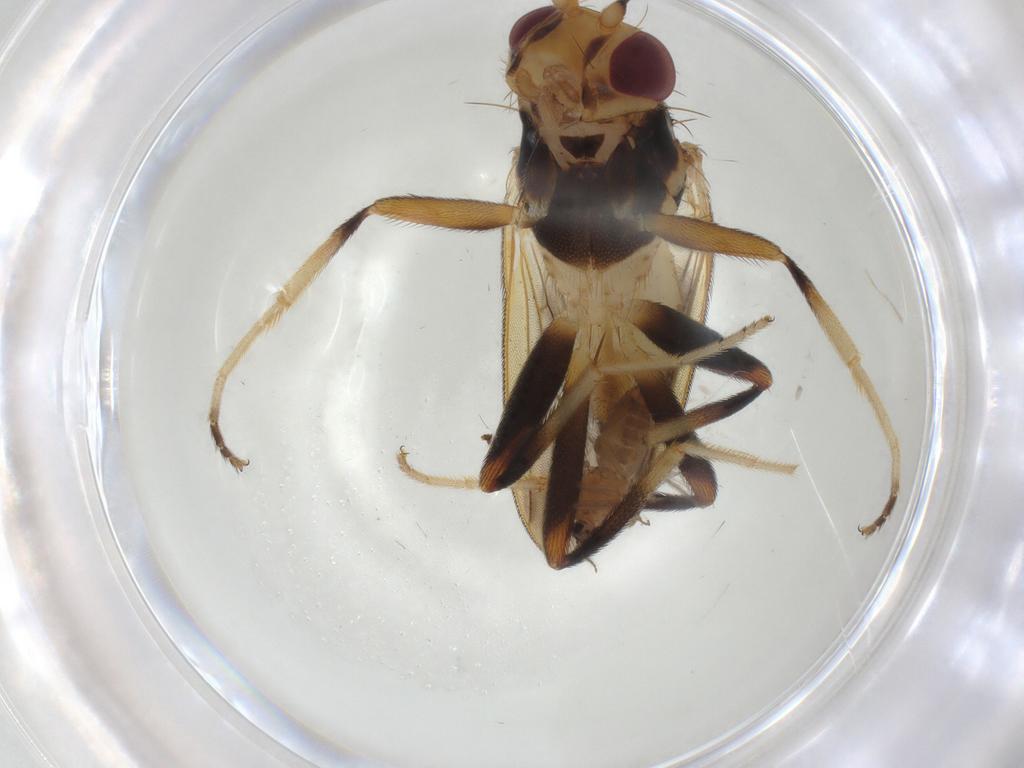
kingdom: Animalia
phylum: Arthropoda
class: Insecta
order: Diptera
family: Clusiidae
